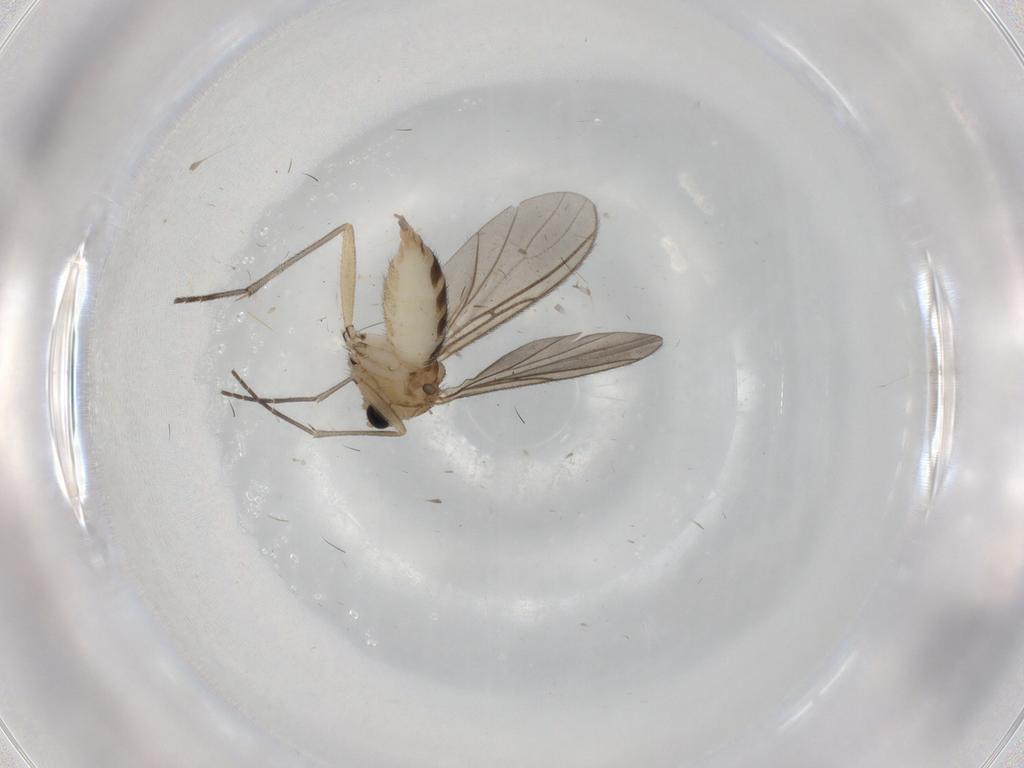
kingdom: Animalia
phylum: Arthropoda
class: Insecta
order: Diptera
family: Sciaridae
